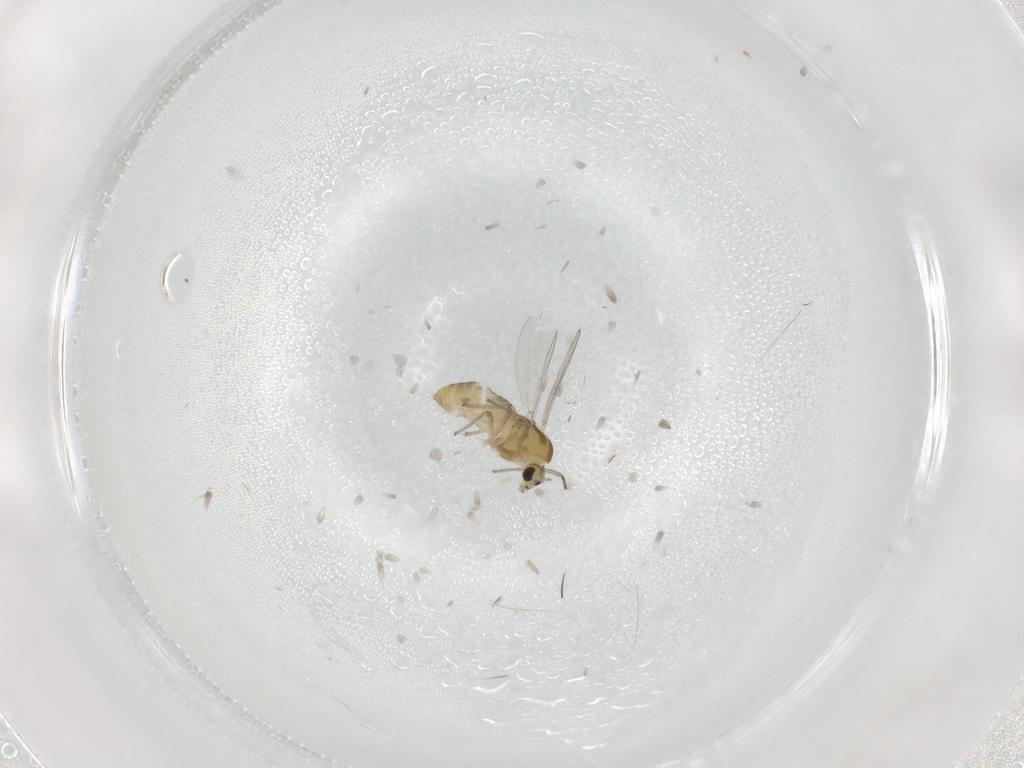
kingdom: Animalia
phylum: Arthropoda
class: Insecta
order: Diptera
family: Chironomidae
